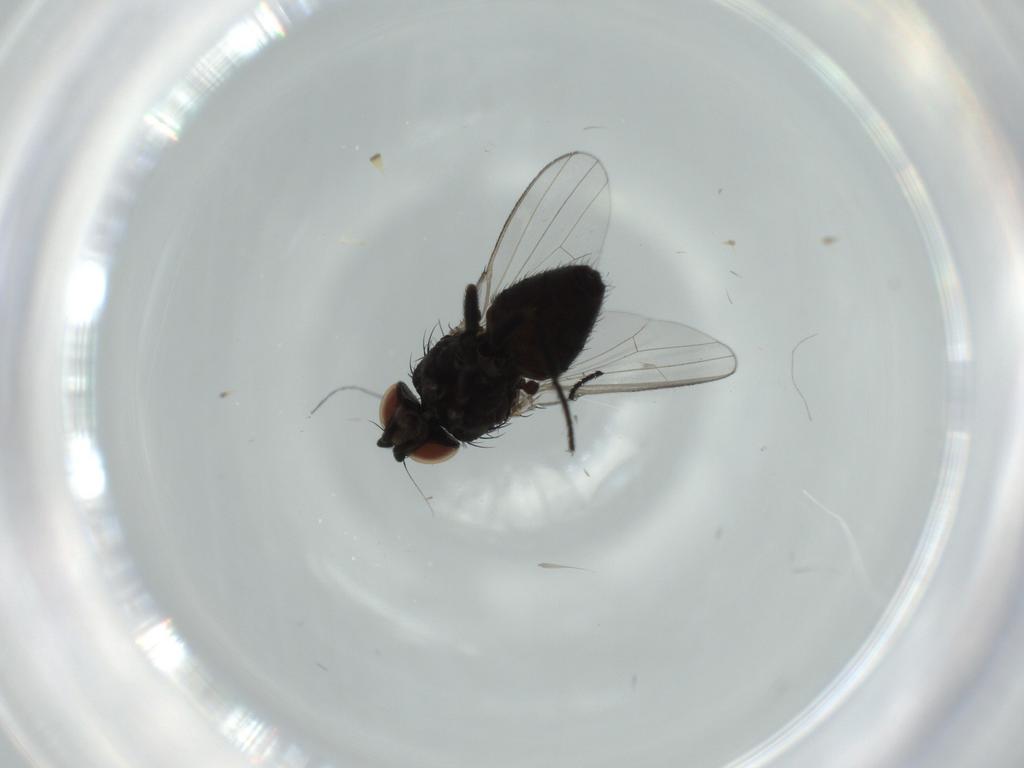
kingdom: Animalia
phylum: Arthropoda
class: Insecta
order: Diptera
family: Milichiidae
